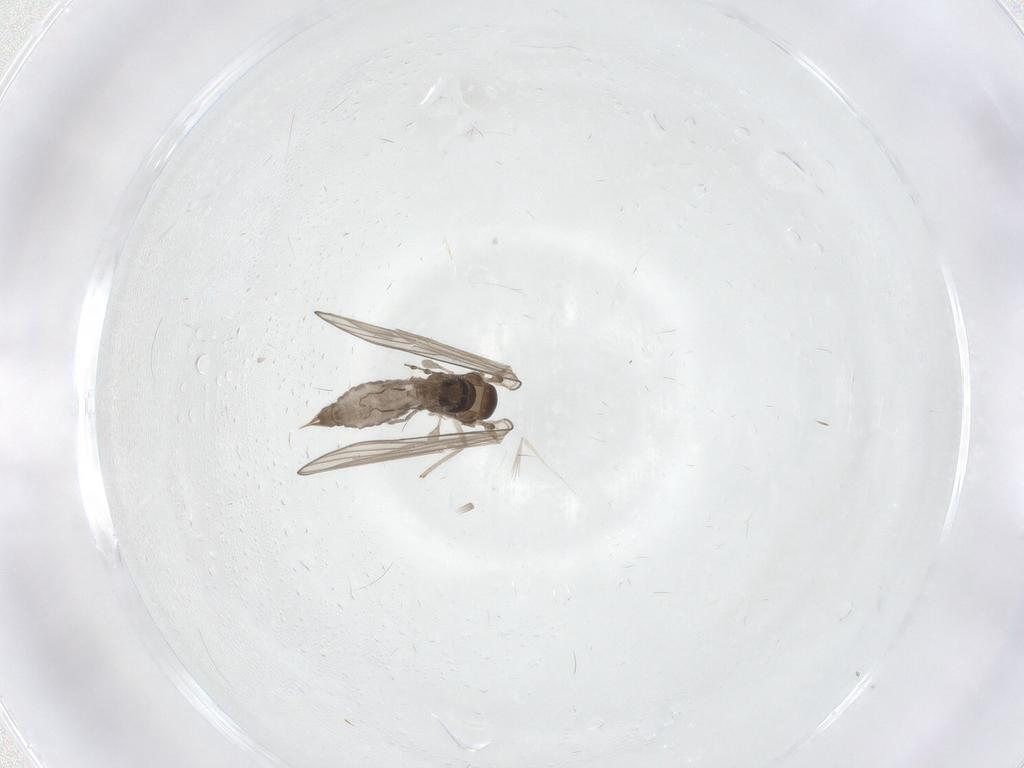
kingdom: Animalia
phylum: Arthropoda
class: Insecta
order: Diptera
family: Psychodidae
